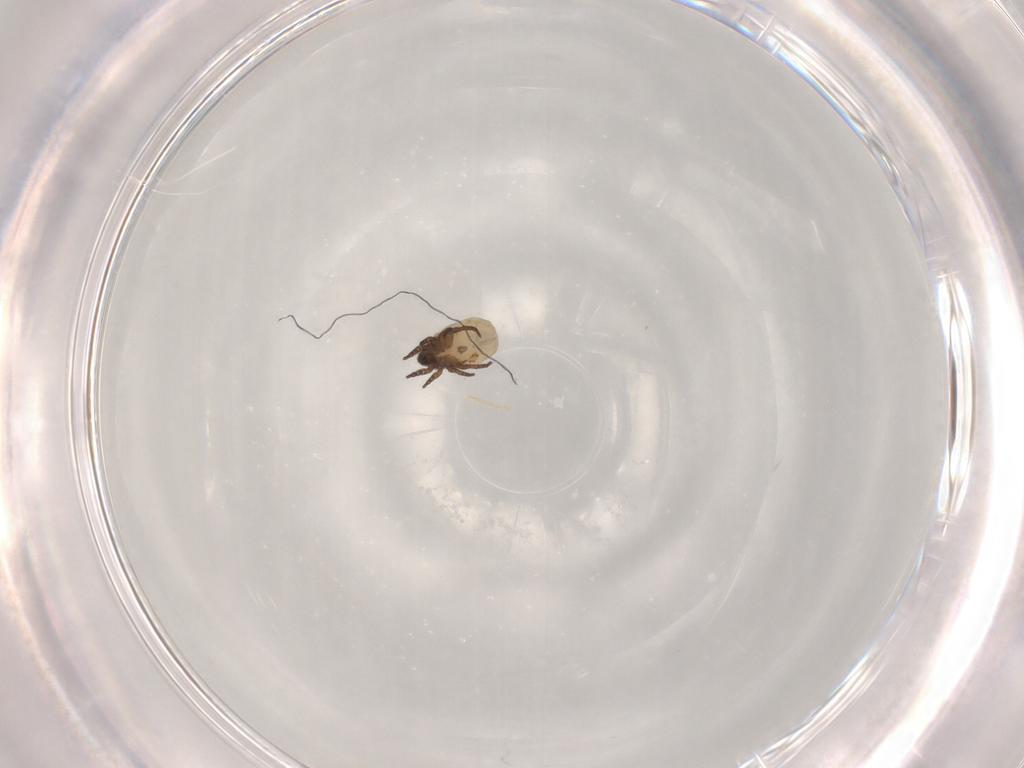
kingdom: Animalia
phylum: Arthropoda
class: Arachnida
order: Sarcoptiformes
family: Crotoniidae
